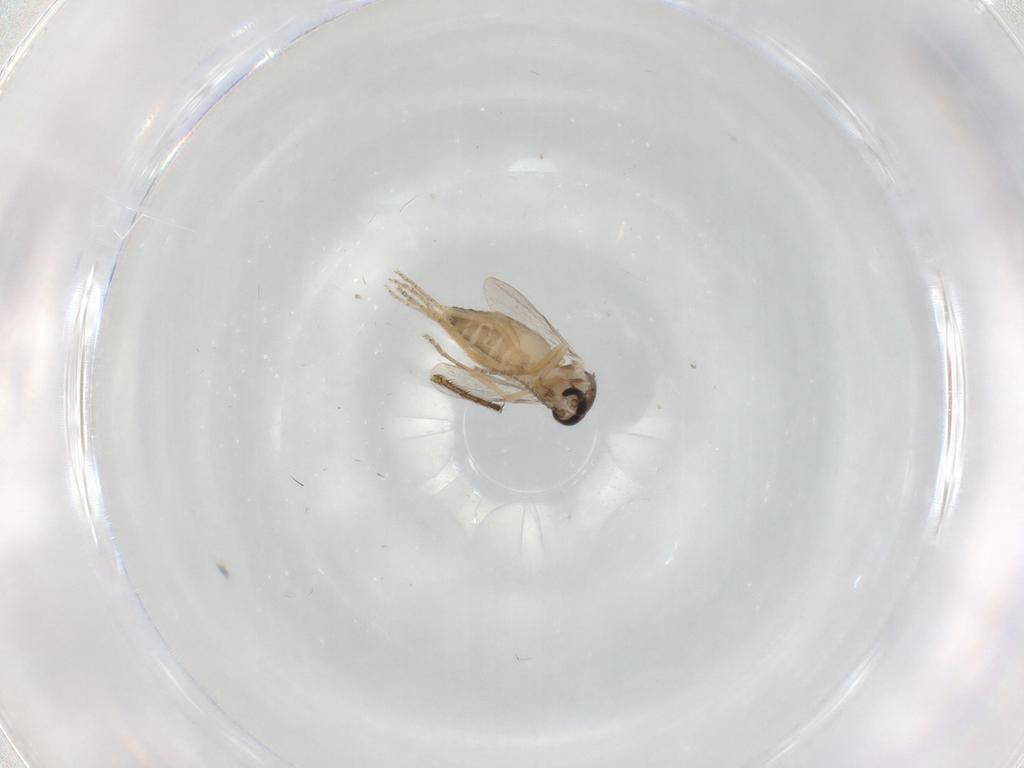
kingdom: Animalia
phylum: Arthropoda
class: Insecta
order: Diptera
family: Ceratopogonidae
